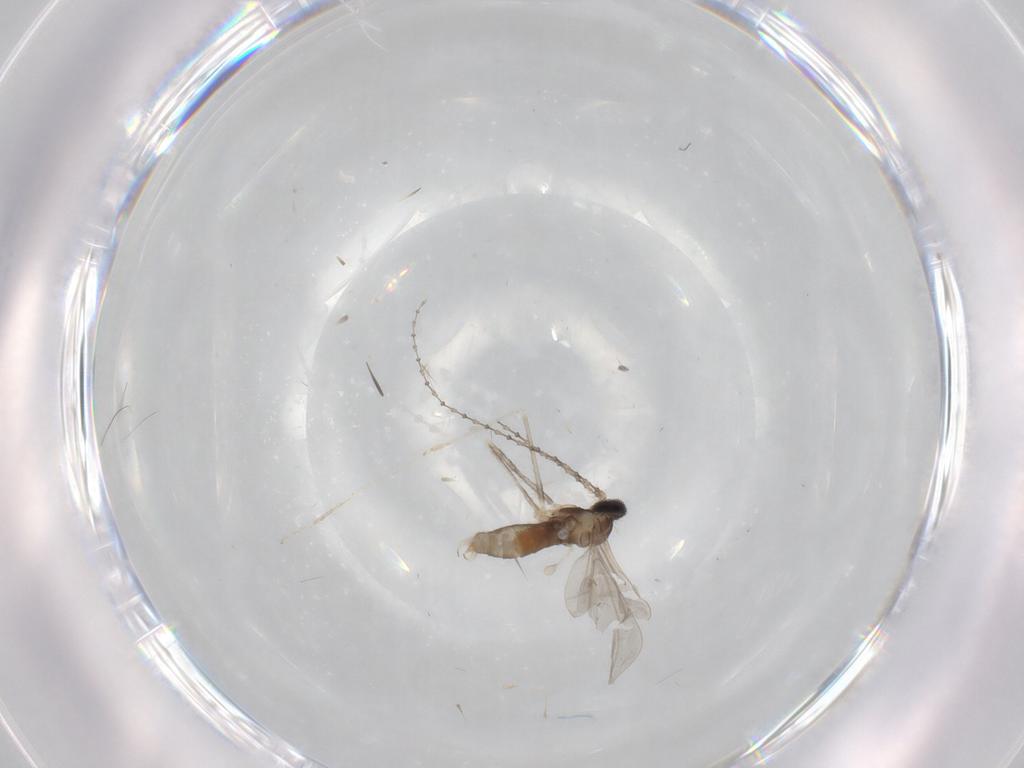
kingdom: Animalia
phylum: Arthropoda
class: Insecta
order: Diptera
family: Cecidomyiidae
